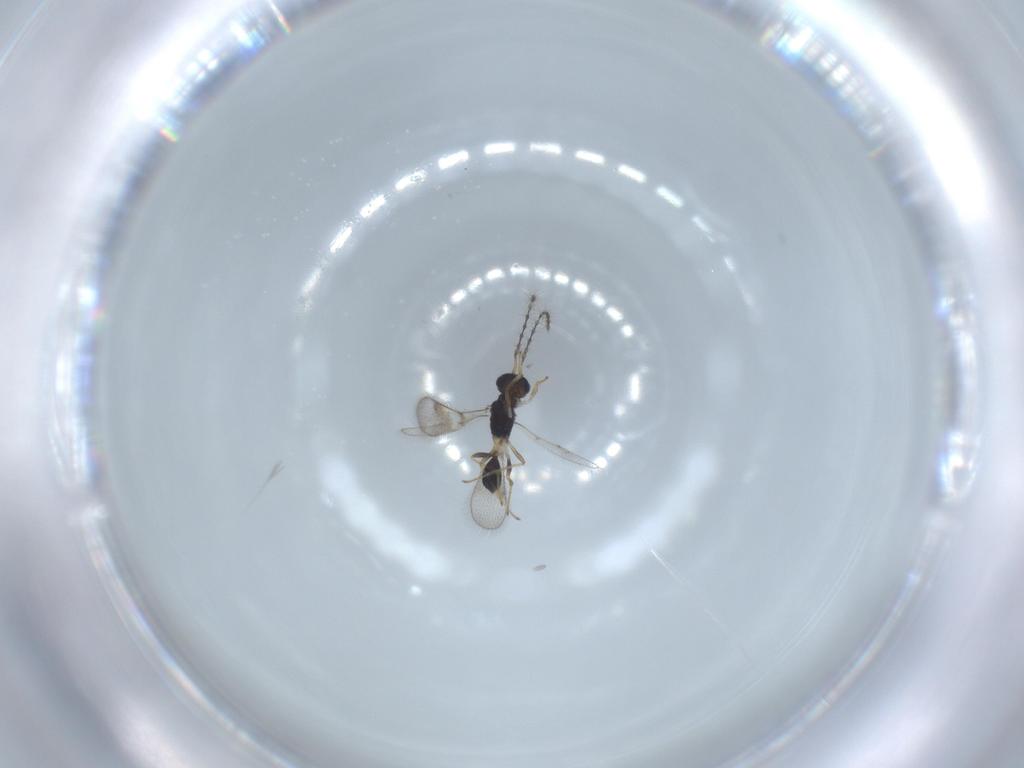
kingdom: Animalia
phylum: Arthropoda
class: Insecta
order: Hymenoptera
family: Diparidae
